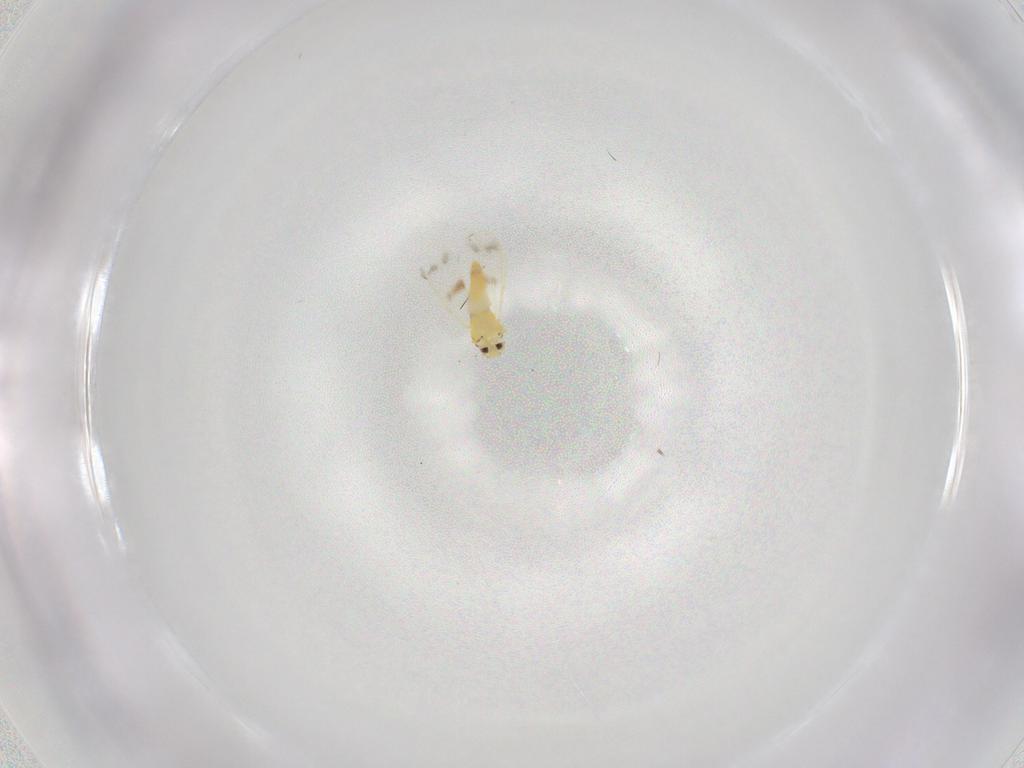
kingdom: Animalia
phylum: Arthropoda
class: Insecta
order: Hemiptera
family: Aleyrodidae
